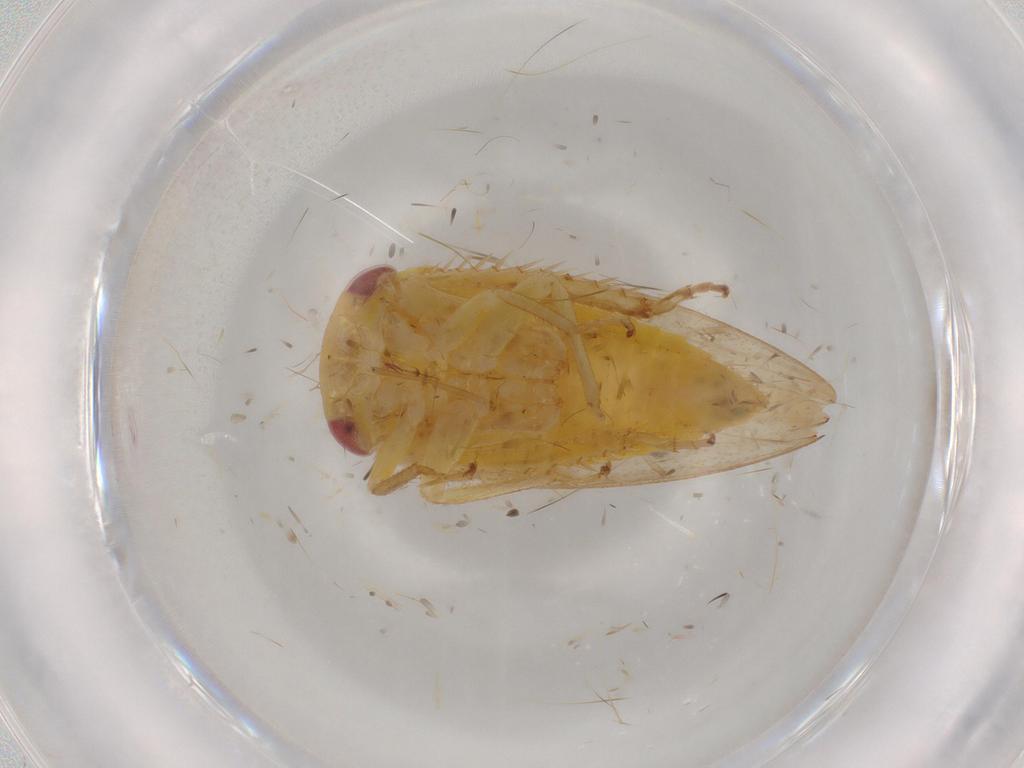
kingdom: Animalia
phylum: Arthropoda
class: Insecta
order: Hemiptera
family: Cicadellidae
